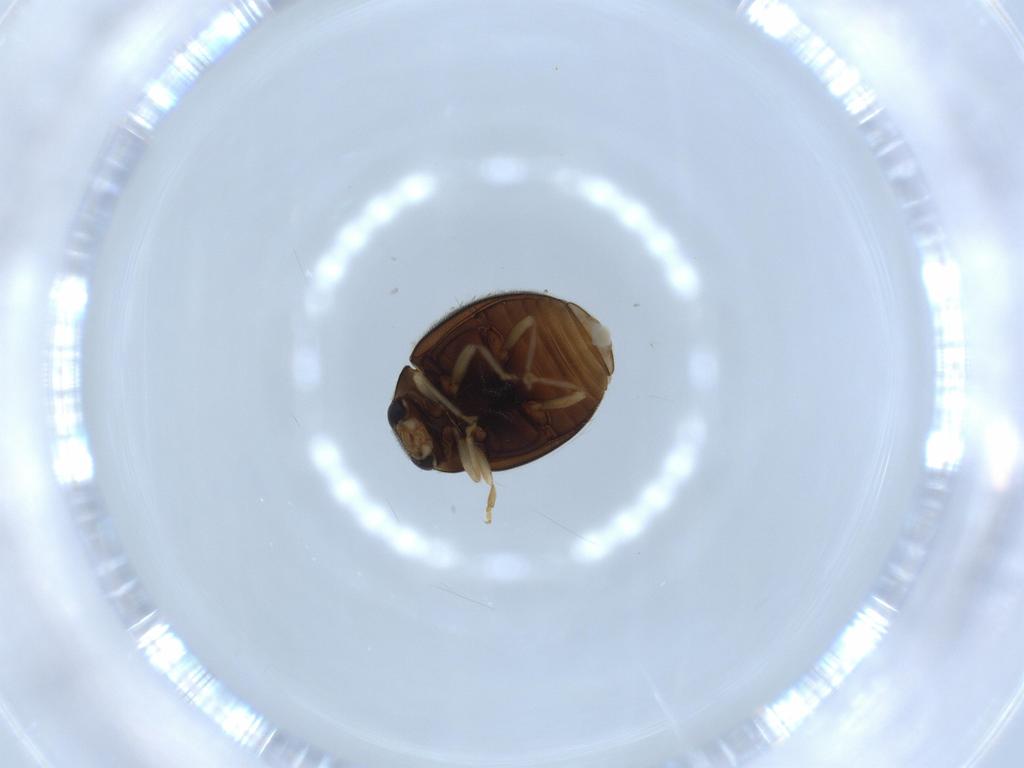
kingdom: Animalia
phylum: Arthropoda
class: Insecta
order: Coleoptera
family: Coccinellidae
